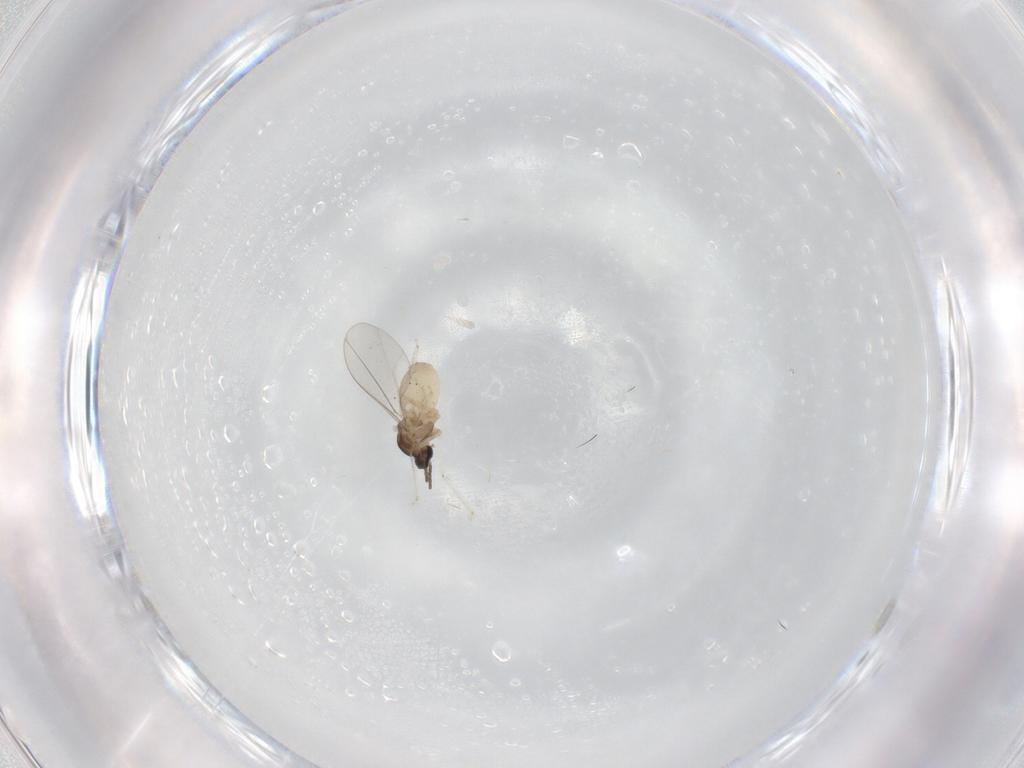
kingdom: Animalia
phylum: Arthropoda
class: Insecta
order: Diptera
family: Cecidomyiidae
